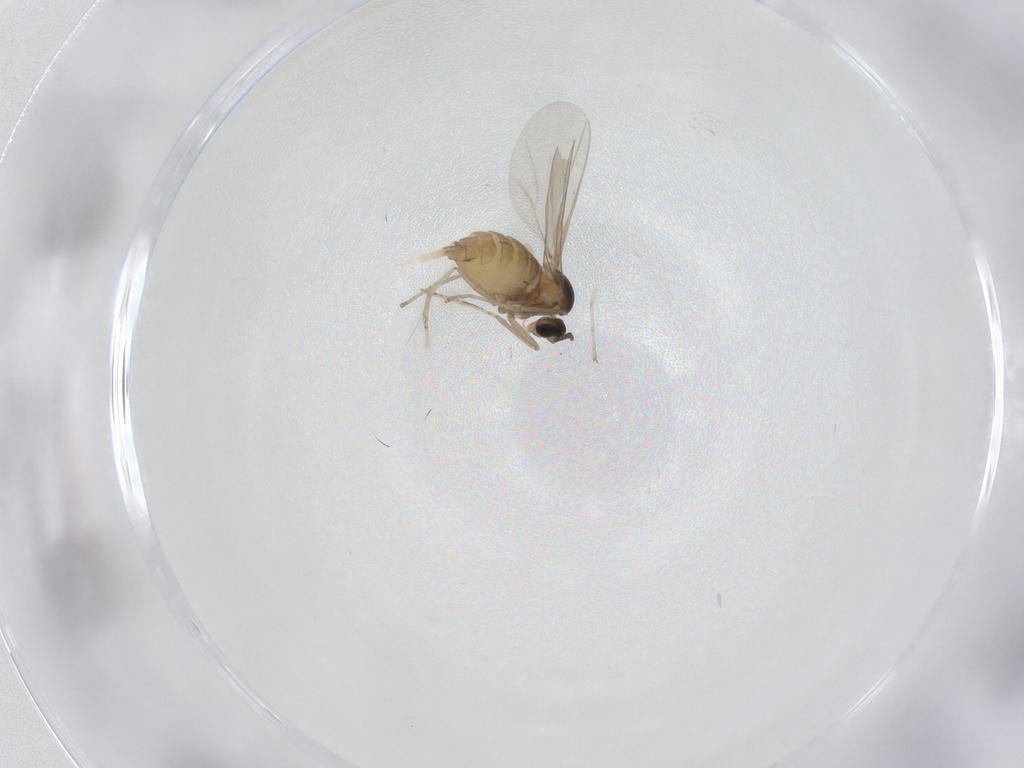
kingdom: Animalia
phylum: Arthropoda
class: Insecta
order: Diptera
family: Cecidomyiidae
